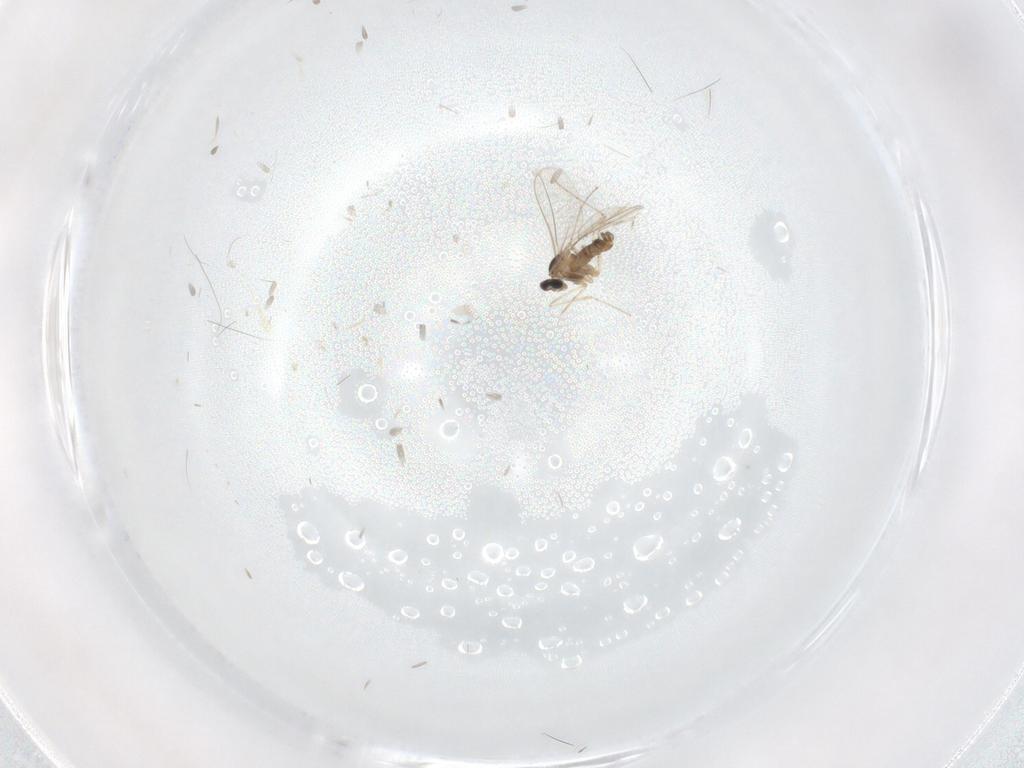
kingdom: Animalia
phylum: Arthropoda
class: Insecta
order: Diptera
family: Cecidomyiidae
